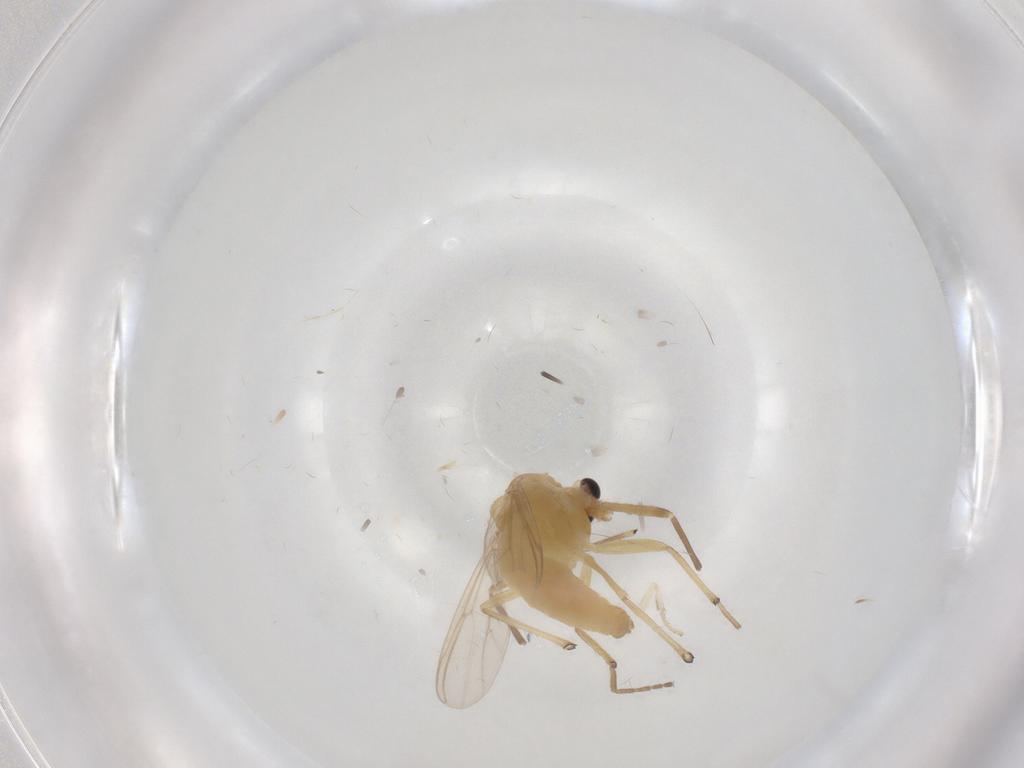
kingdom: Animalia
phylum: Arthropoda
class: Insecta
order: Diptera
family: Chironomidae
